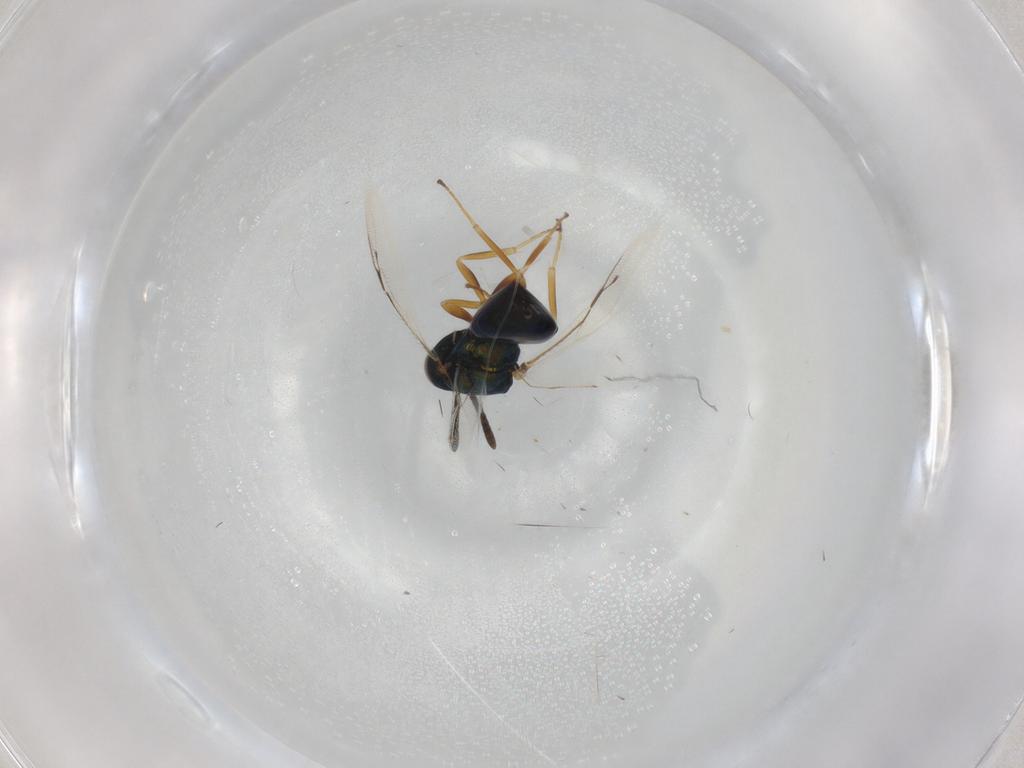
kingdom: Animalia
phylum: Arthropoda
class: Insecta
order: Hymenoptera
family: Pteromalidae
